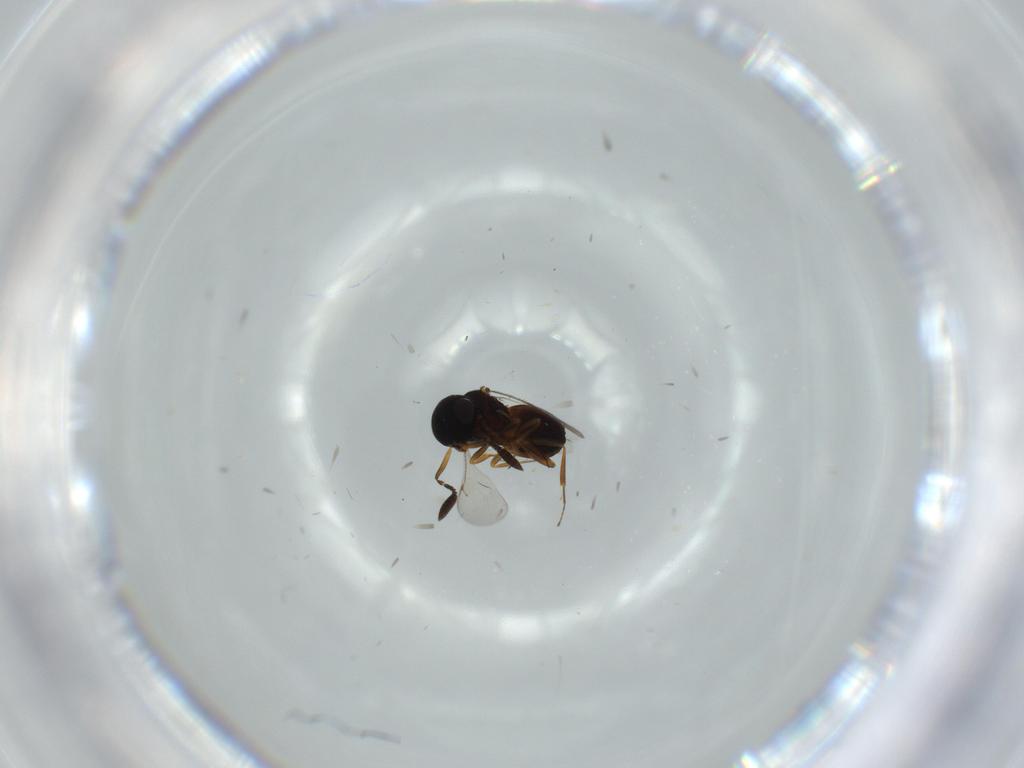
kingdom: Animalia
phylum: Arthropoda
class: Insecta
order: Hymenoptera
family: Scelionidae
